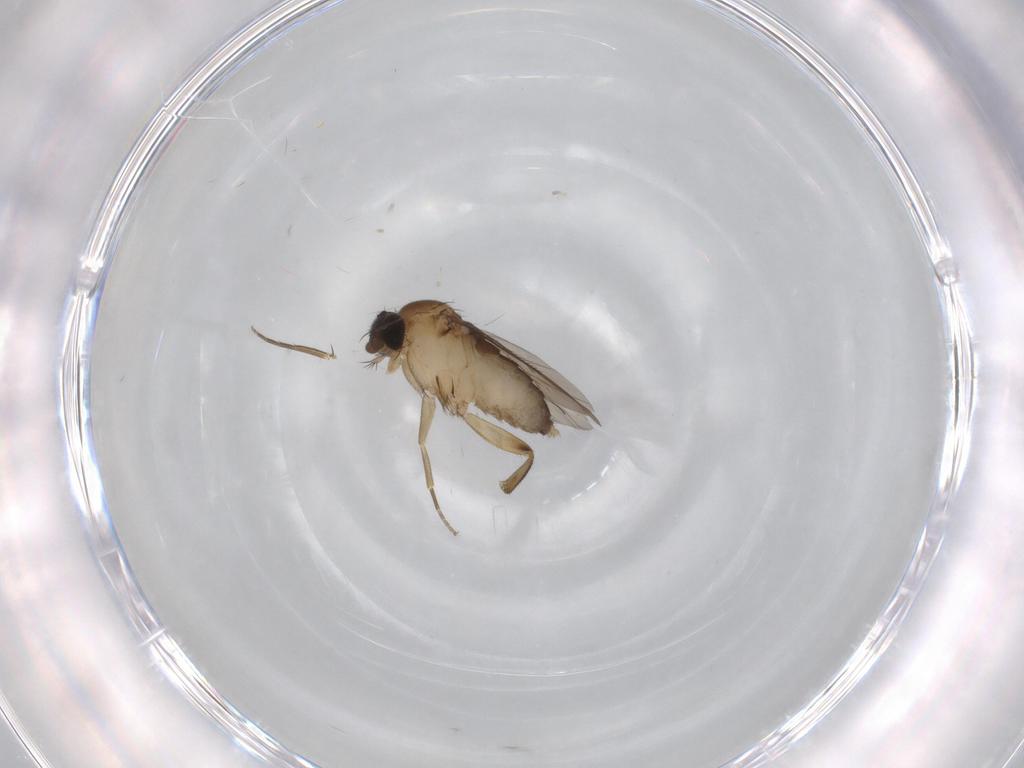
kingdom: Animalia
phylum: Arthropoda
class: Insecta
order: Diptera
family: Phoridae
